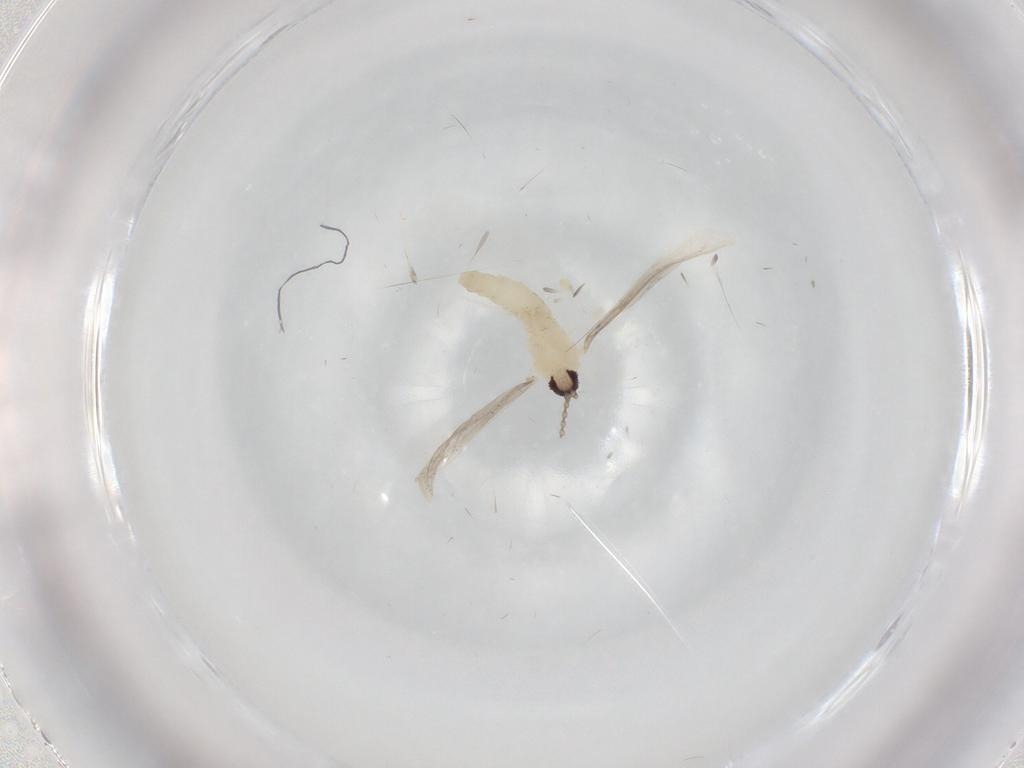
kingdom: Animalia
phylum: Arthropoda
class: Insecta
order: Diptera
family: Cecidomyiidae
